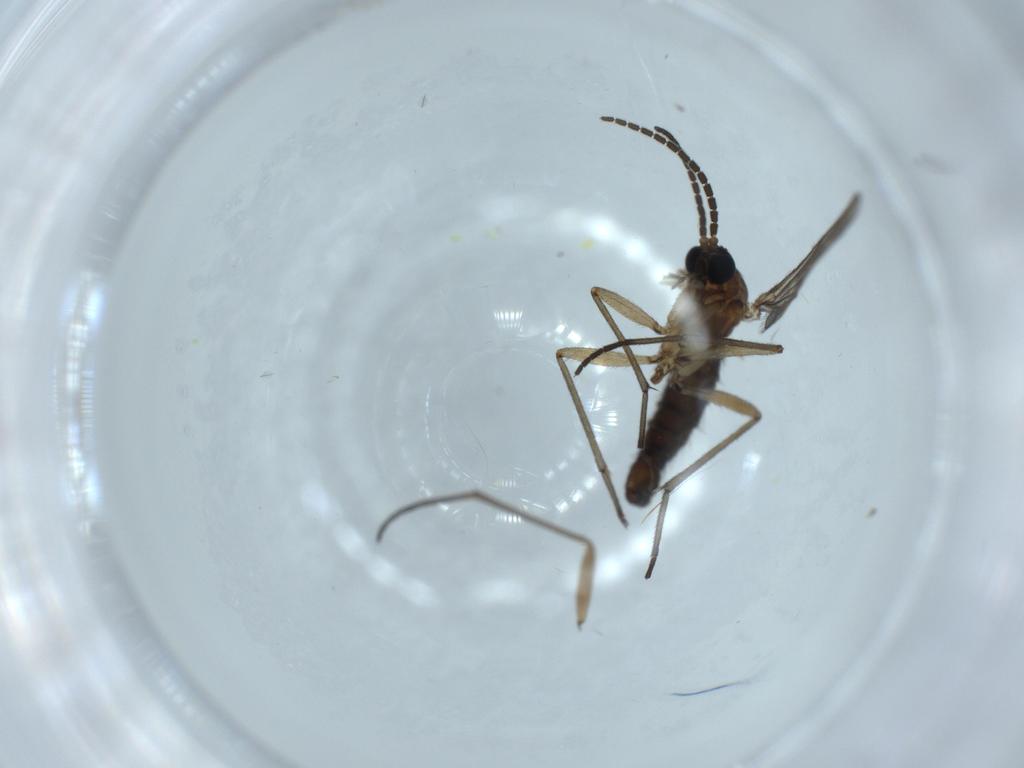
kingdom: Animalia
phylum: Arthropoda
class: Insecta
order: Diptera
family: Sciaridae
